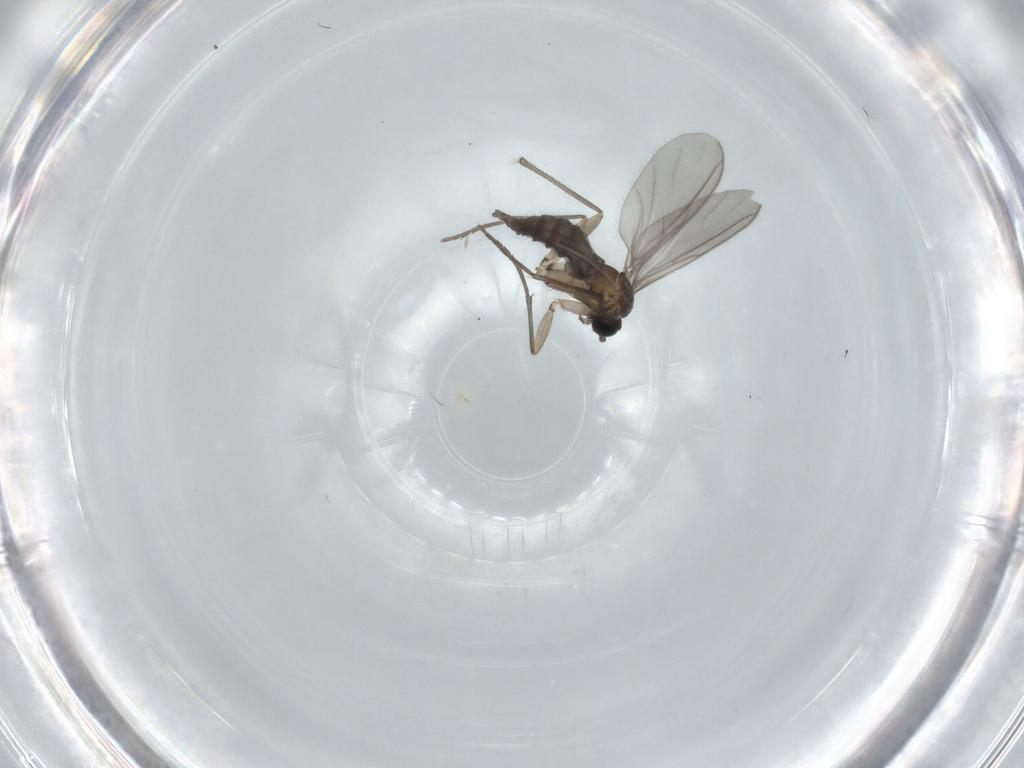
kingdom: Animalia
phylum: Arthropoda
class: Insecta
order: Diptera
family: Sciaridae
